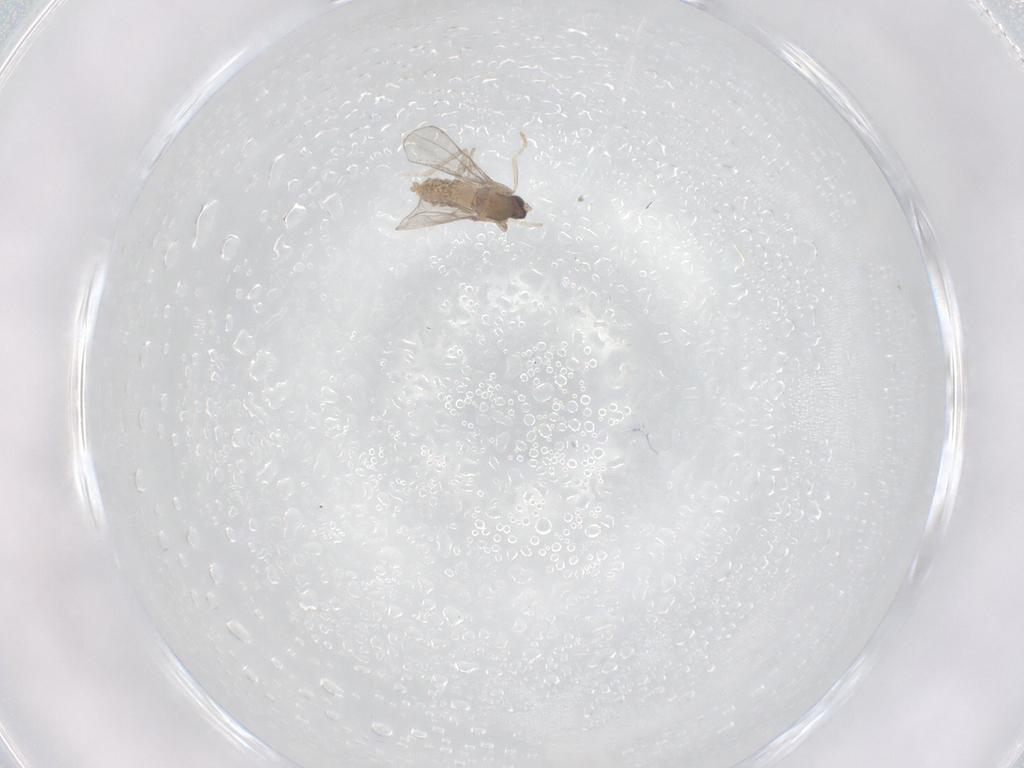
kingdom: Animalia
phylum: Arthropoda
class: Insecta
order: Diptera
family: Cecidomyiidae
